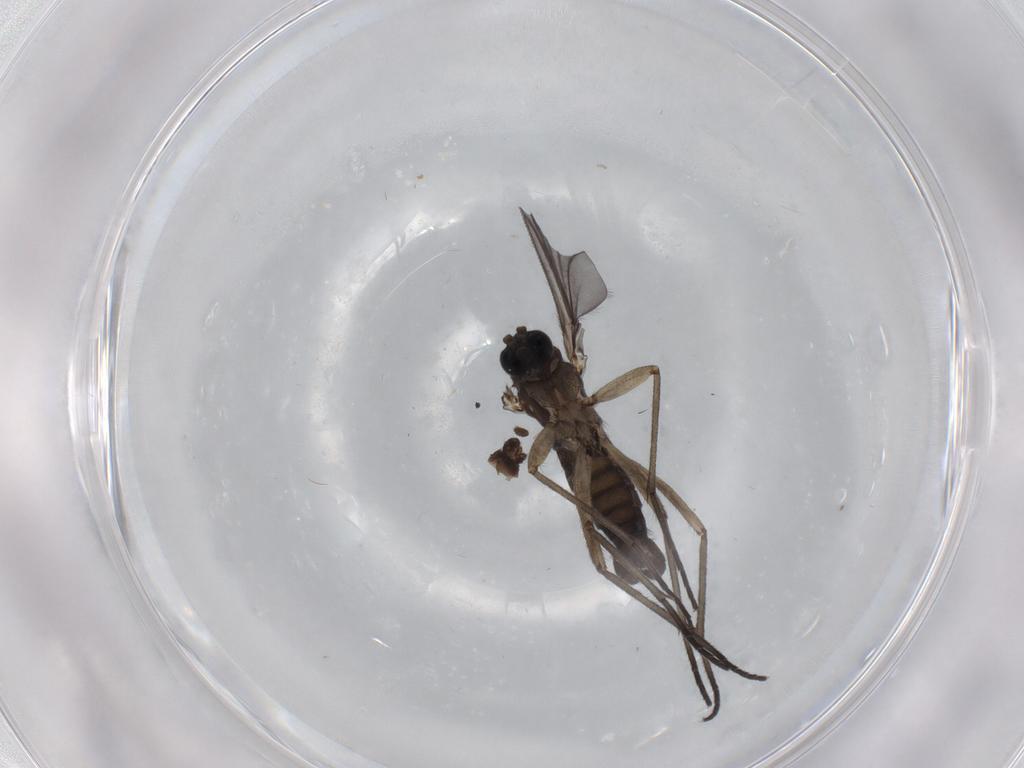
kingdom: Animalia
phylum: Arthropoda
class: Insecta
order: Diptera
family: Sciaridae
